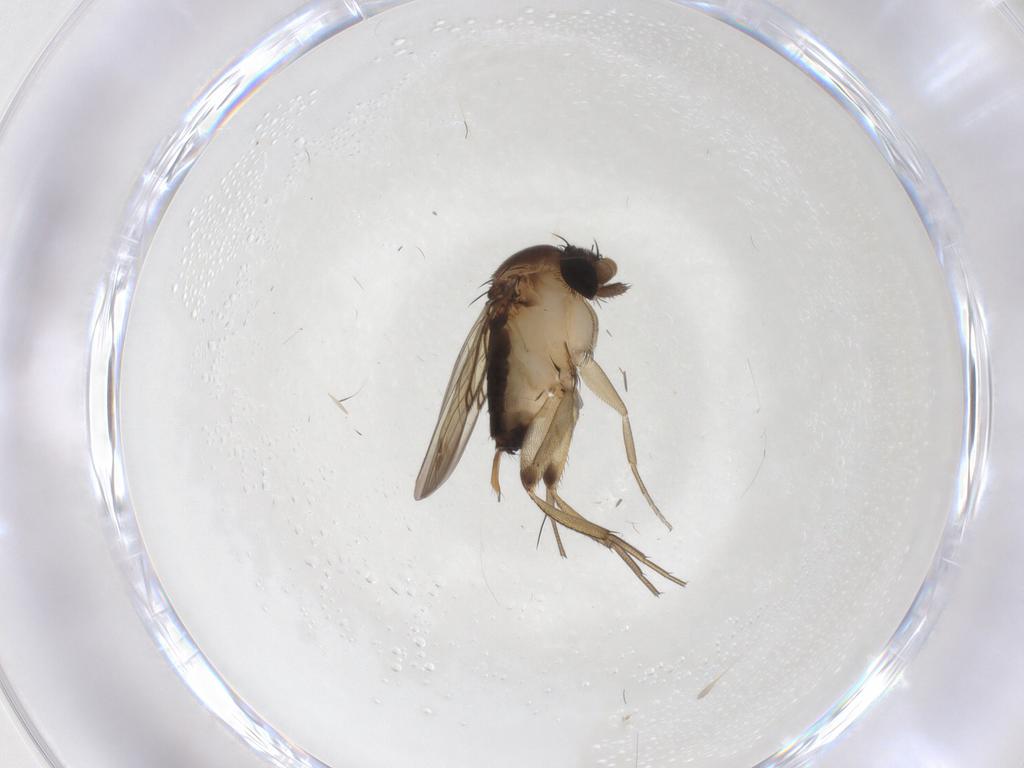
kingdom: Animalia
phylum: Arthropoda
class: Insecta
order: Diptera
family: Phoridae
